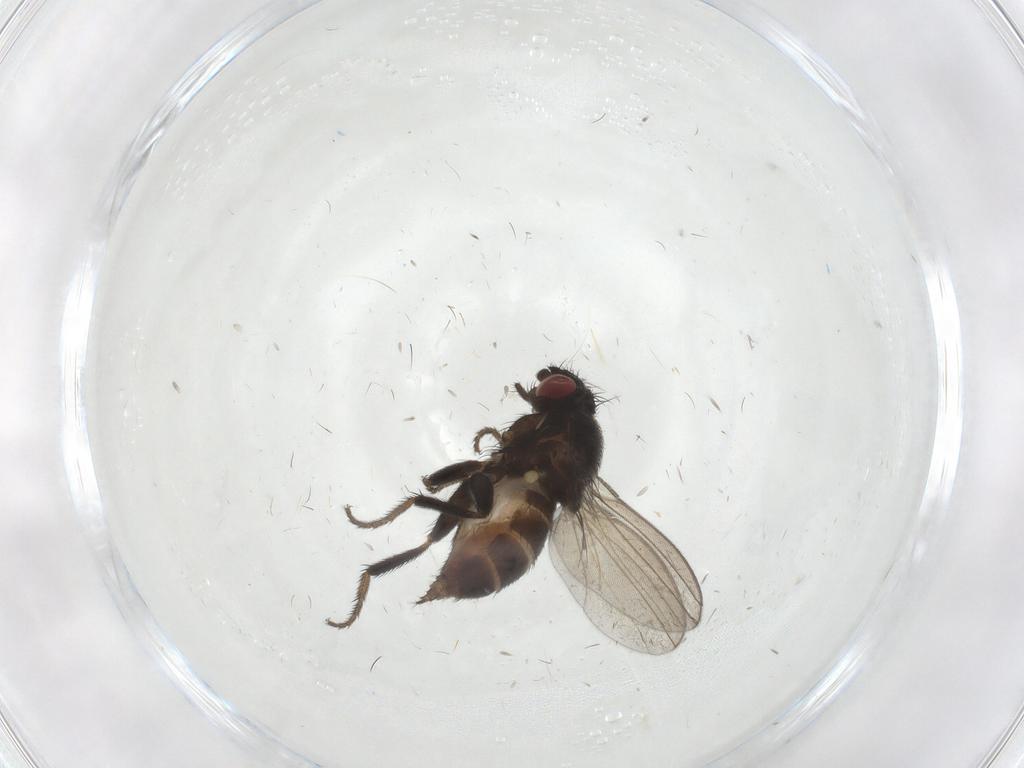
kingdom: Animalia
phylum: Arthropoda
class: Insecta
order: Diptera
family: Milichiidae
